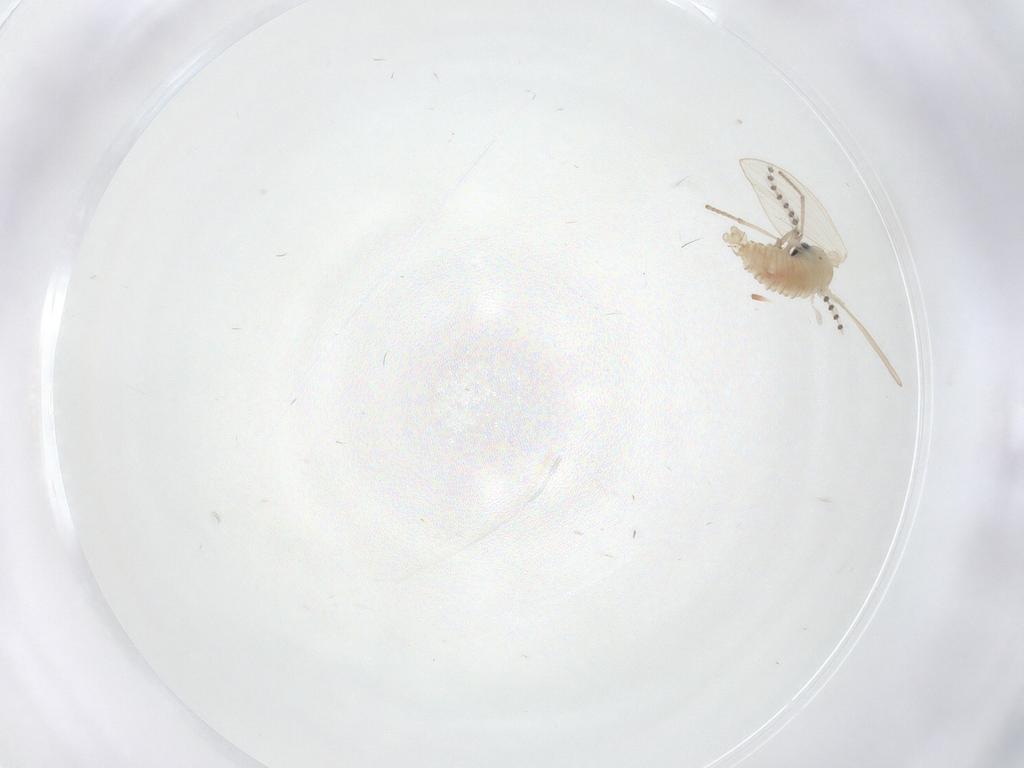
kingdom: Animalia
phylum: Arthropoda
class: Insecta
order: Diptera
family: Psychodidae
